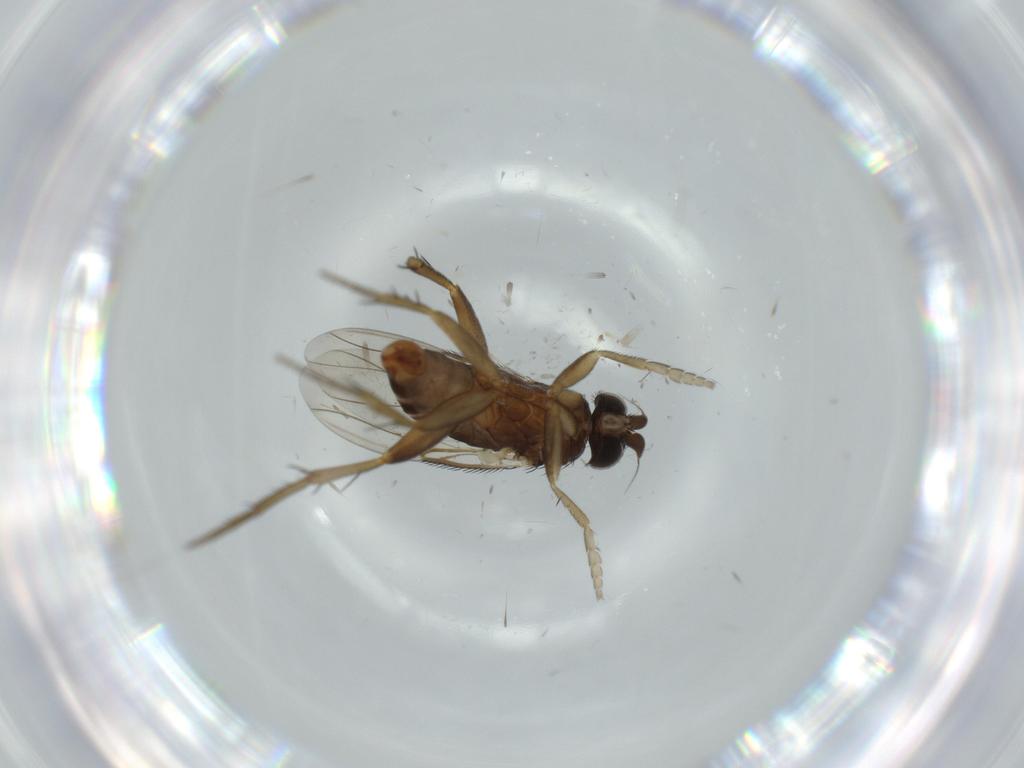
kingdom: Animalia
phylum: Arthropoda
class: Insecta
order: Diptera
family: Phoridae
